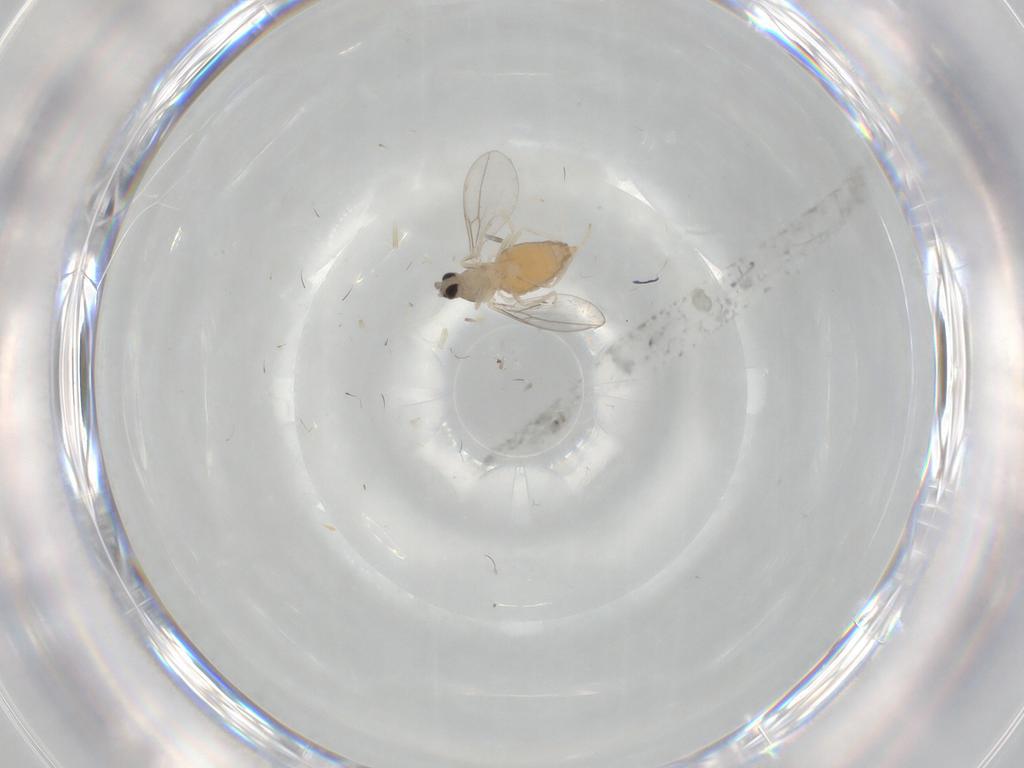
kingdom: Animalia
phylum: Arthropoda
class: Insecta
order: Diptera
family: Cecidomyiidae
